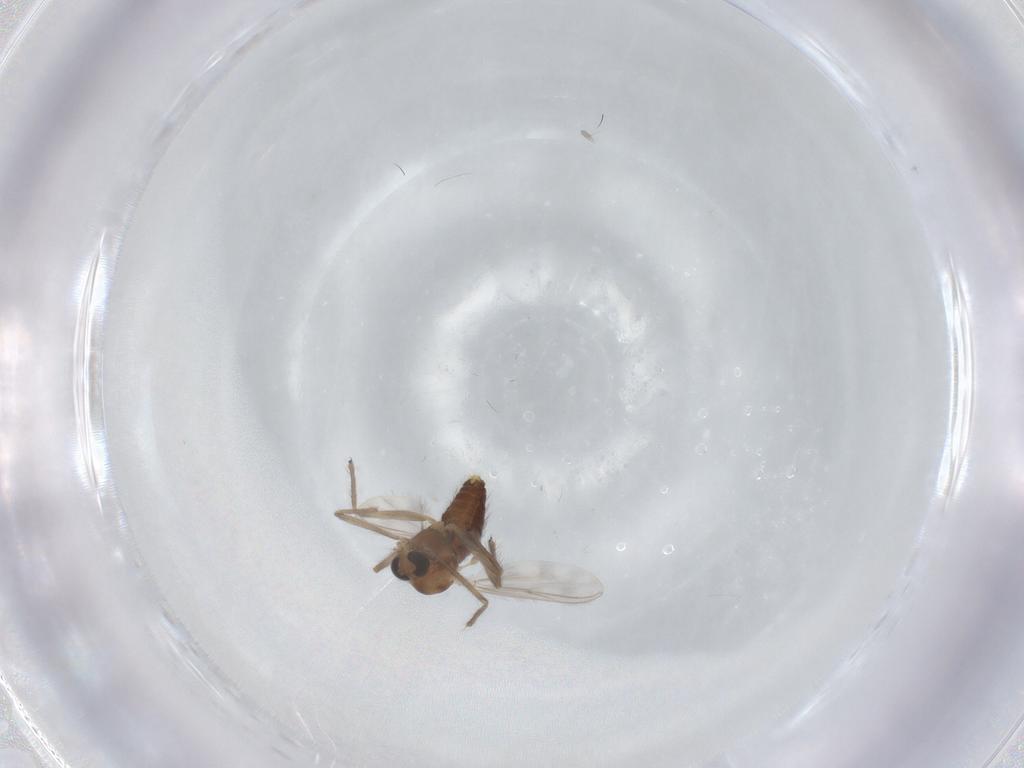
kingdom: Animalia
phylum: Arthropoda
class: Insecta
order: Diptera
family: Chironomidae
